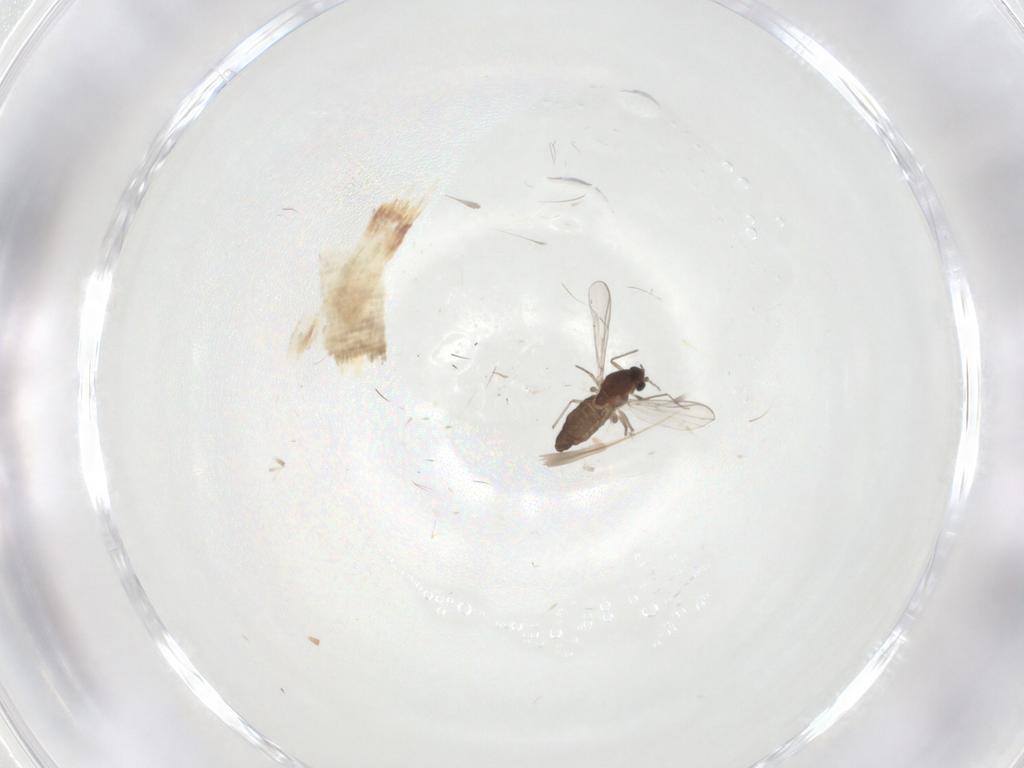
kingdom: Animalia
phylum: Arthropoda
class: Insecta
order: Diptera
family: Chironomidae
